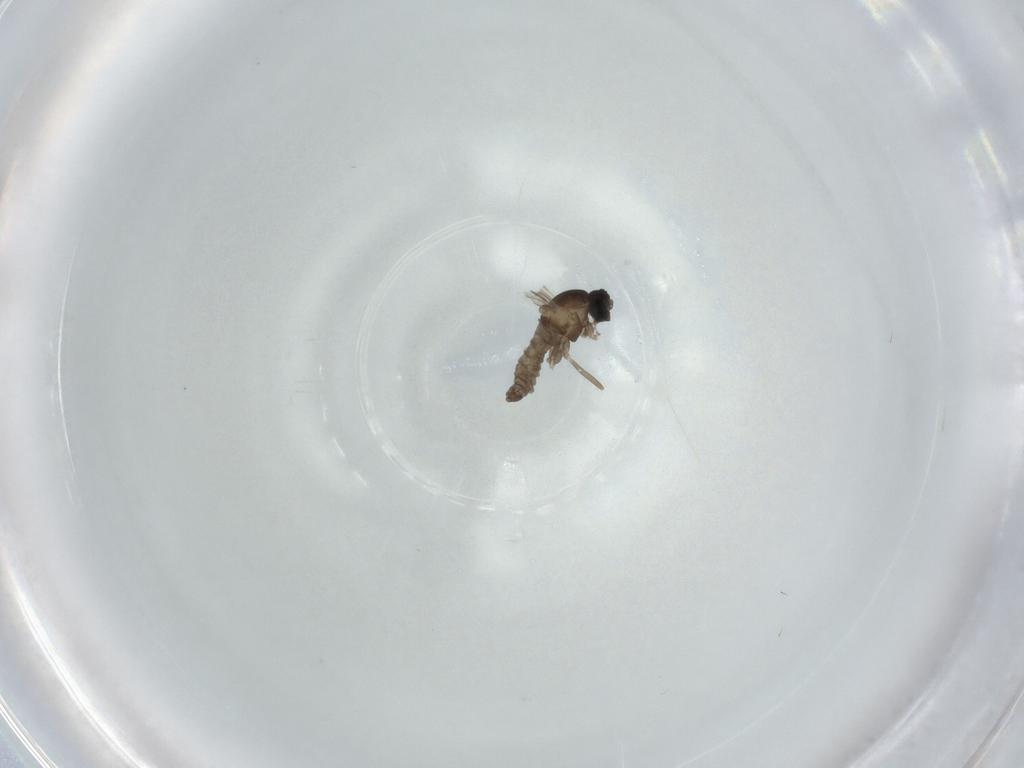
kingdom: Animalia
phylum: Arthropoda
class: Insecta
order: Diptera
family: Cecidomyiidae
